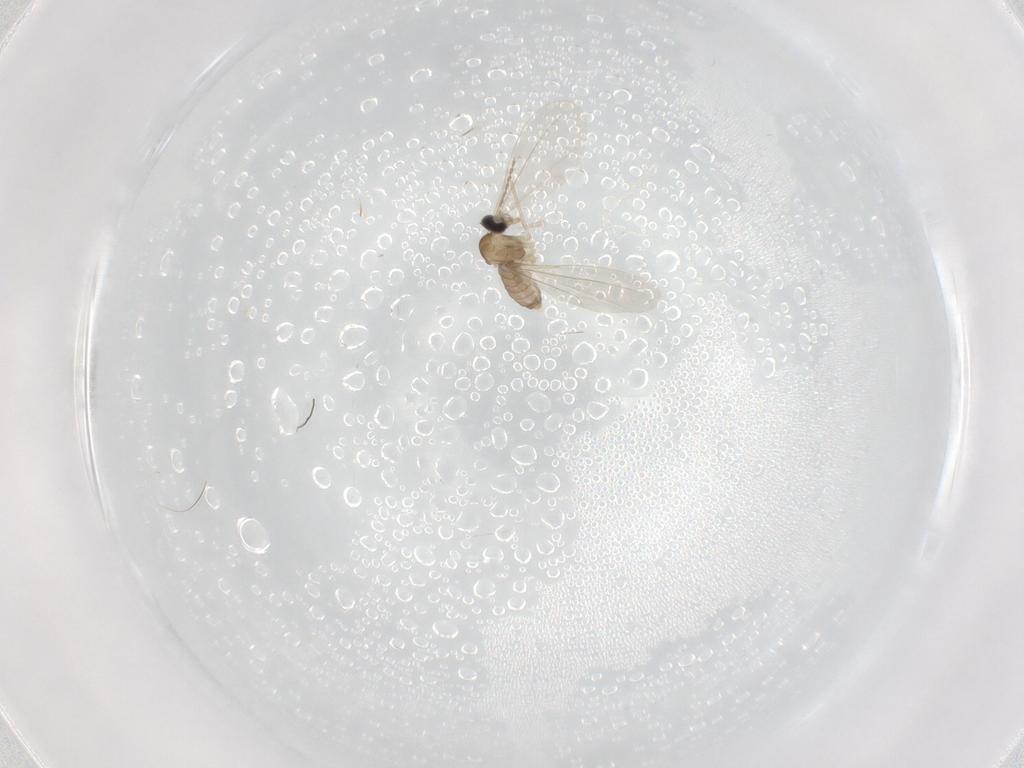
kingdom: Animalia
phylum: Arthropoda
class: Insecta
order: Diptera
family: Cecidomyiidae
